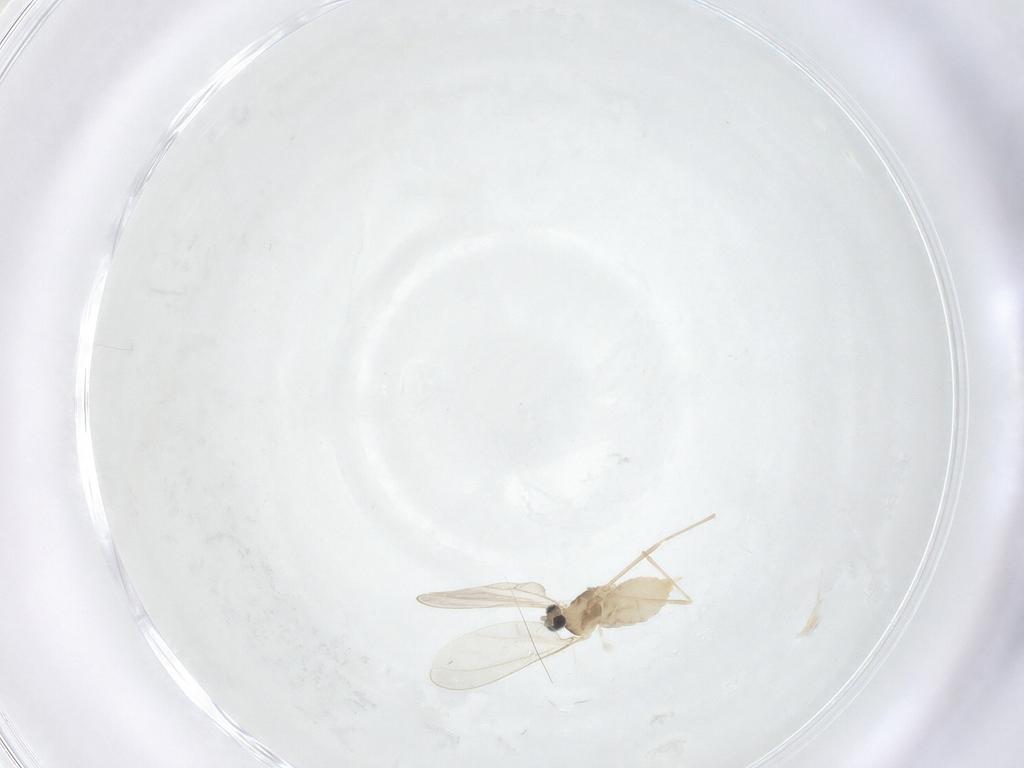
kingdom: Animalia
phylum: Arthropoda
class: Insecta
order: Diptera
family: Cecidomyiidae
